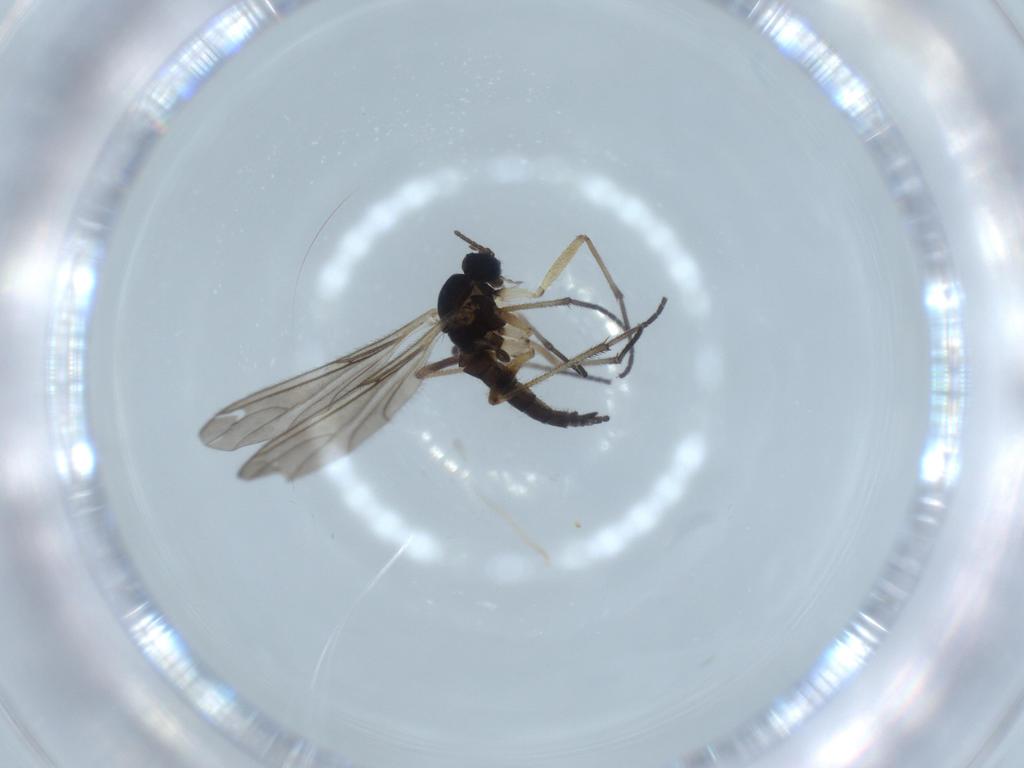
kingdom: Animalia
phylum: Arthropoda
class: Insecta
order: Diptera
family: Sciaridae
